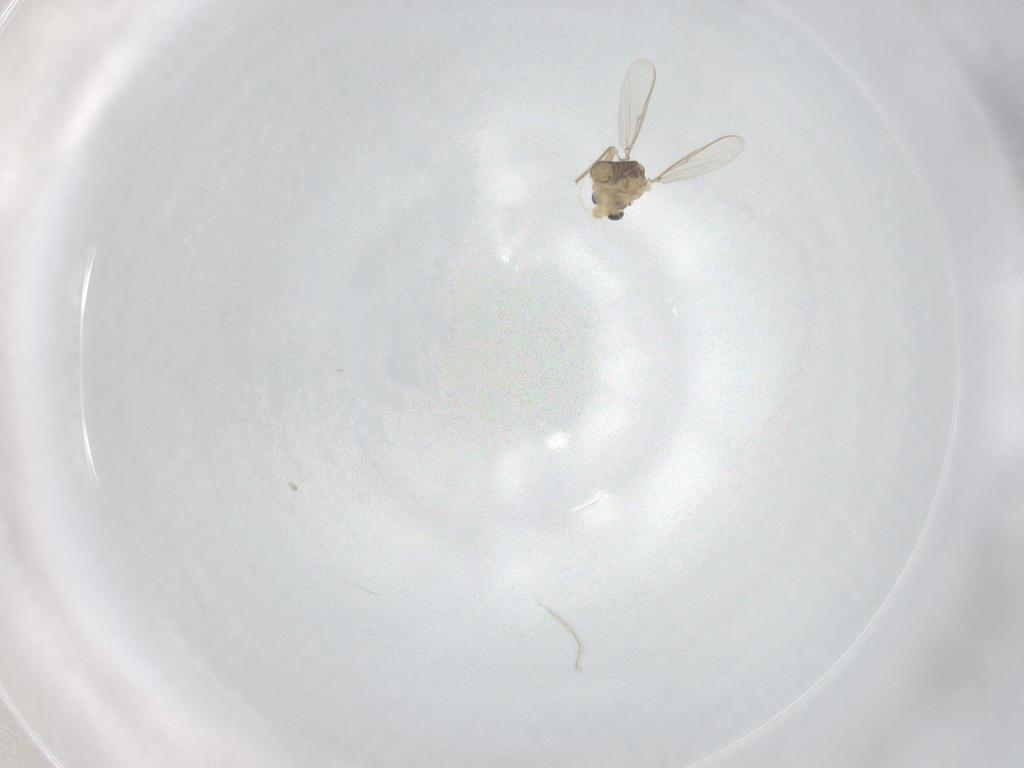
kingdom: Animalia
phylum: Arthropoda
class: Insecta
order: Diptera
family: Chironomidae
